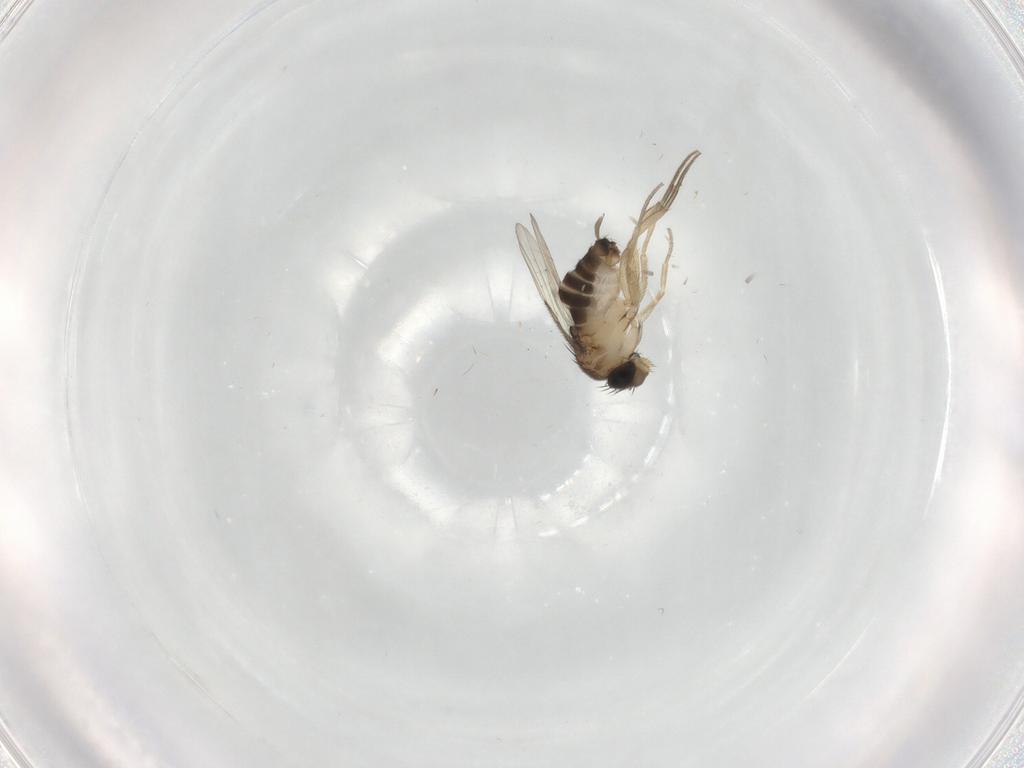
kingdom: Animalia
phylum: Arthropoda
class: Insecta
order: Diptera
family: Ceratopogonidae
